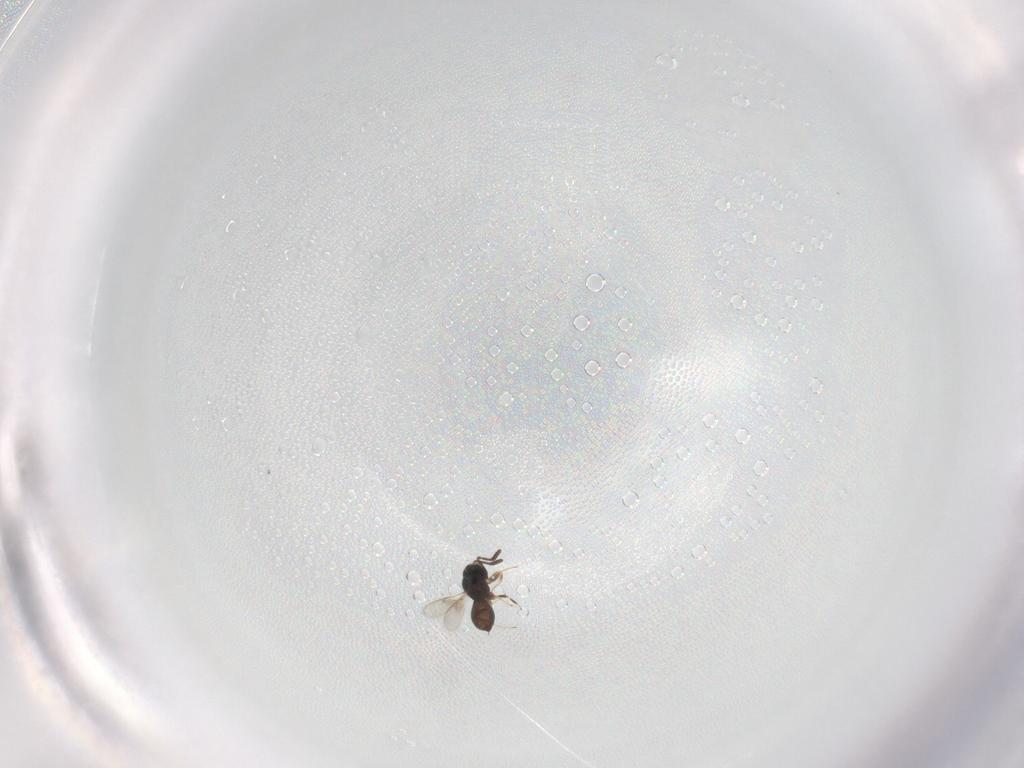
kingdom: Animalia
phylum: Arthropoda
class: Insecta
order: Hymenoptera
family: Scelionidae
